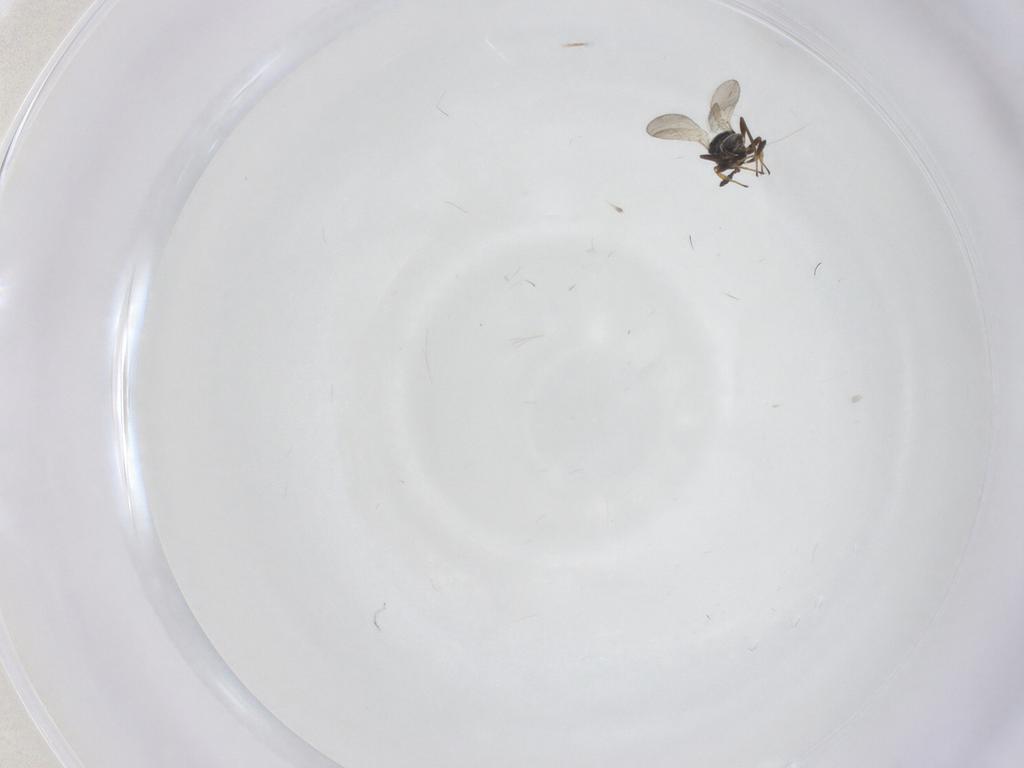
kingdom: Animalia
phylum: Arthropoda
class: Insecta
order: Hymenoptera
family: Platygastridae
